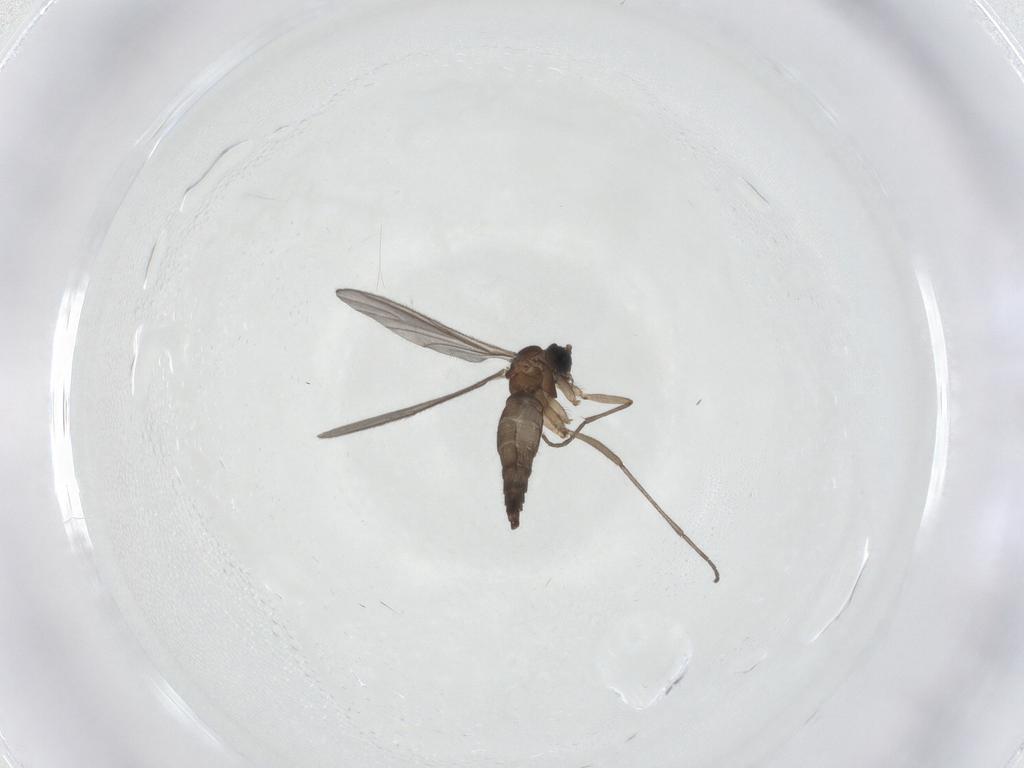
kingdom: Animalia
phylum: Arthropoda
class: Insecta
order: Diptera
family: Sciaridae
